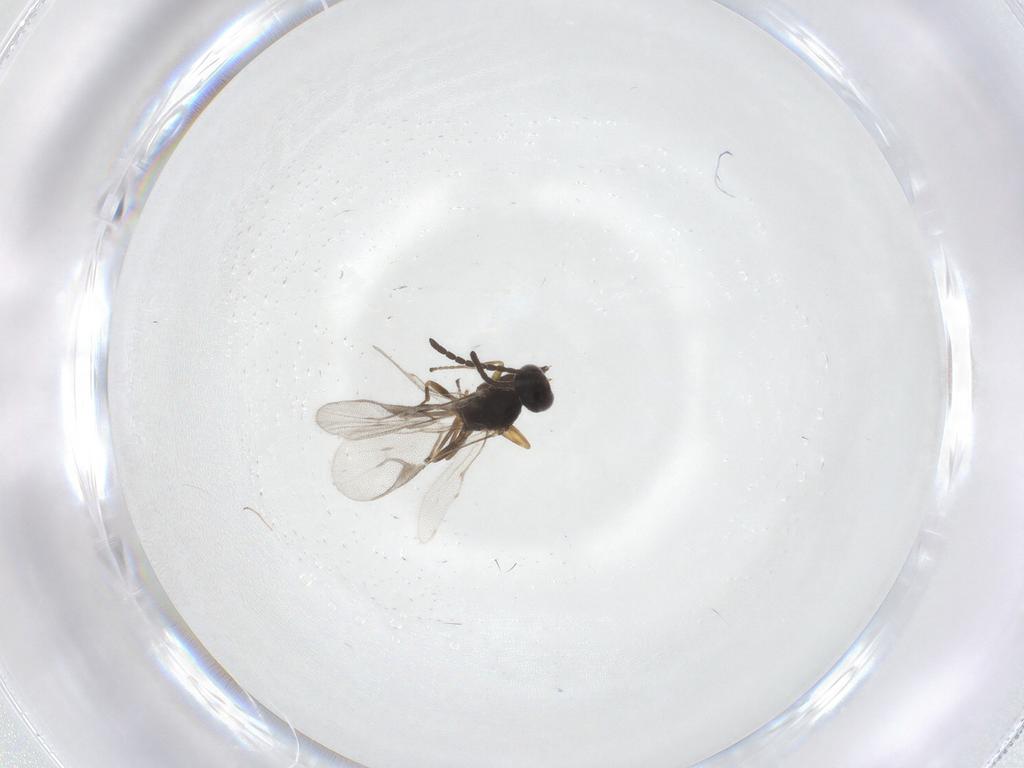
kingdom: Animalia
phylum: Arthropoda
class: Insecta
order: Hymenoptera
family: Braconidae
